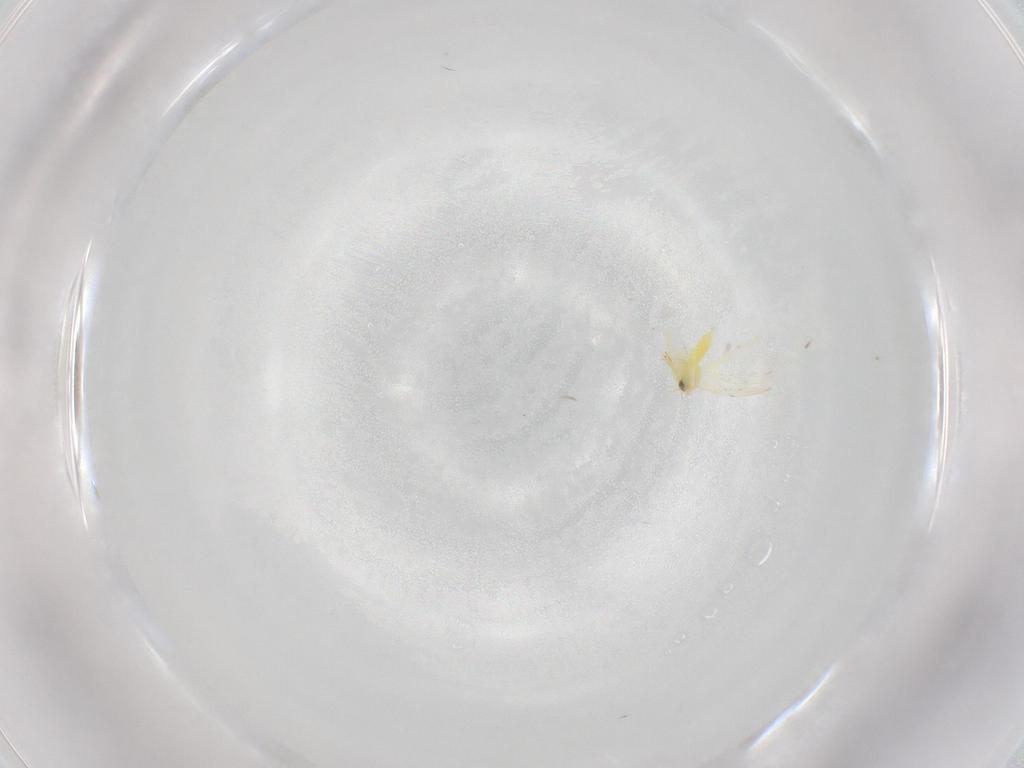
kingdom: Animalia
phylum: Arthropoda
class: Insecta
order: Hemiptera
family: Aleyrodidae
